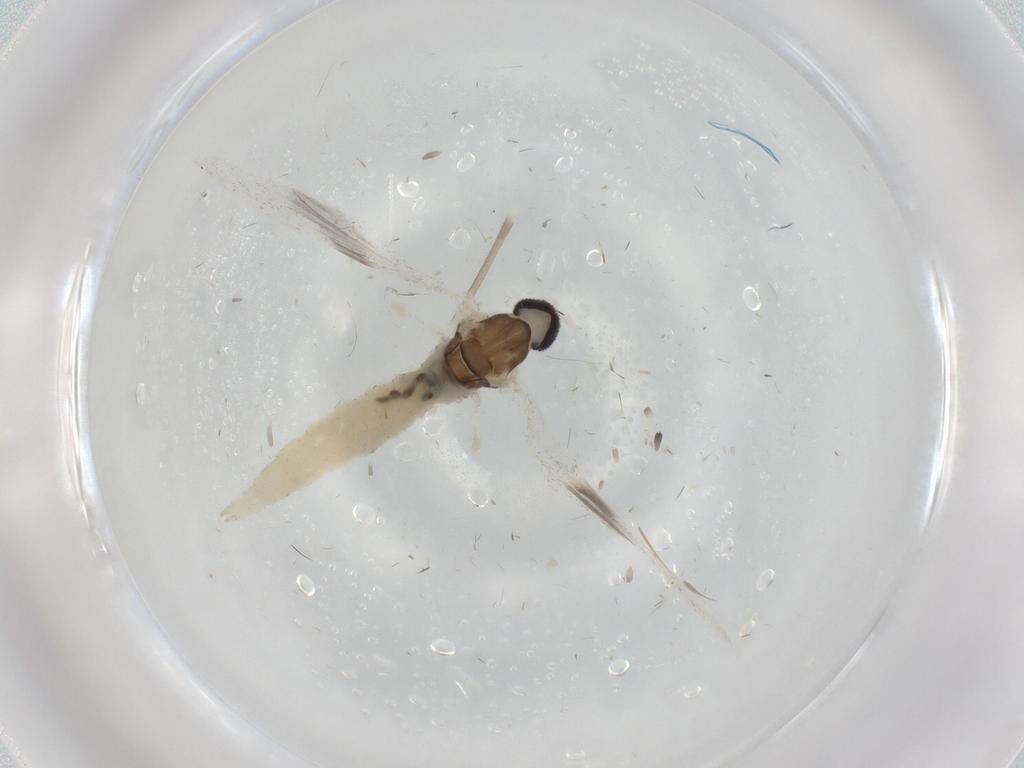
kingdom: Animalia
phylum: Arthropoda
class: Insecta
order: Diptera
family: Cecidomyiidae
